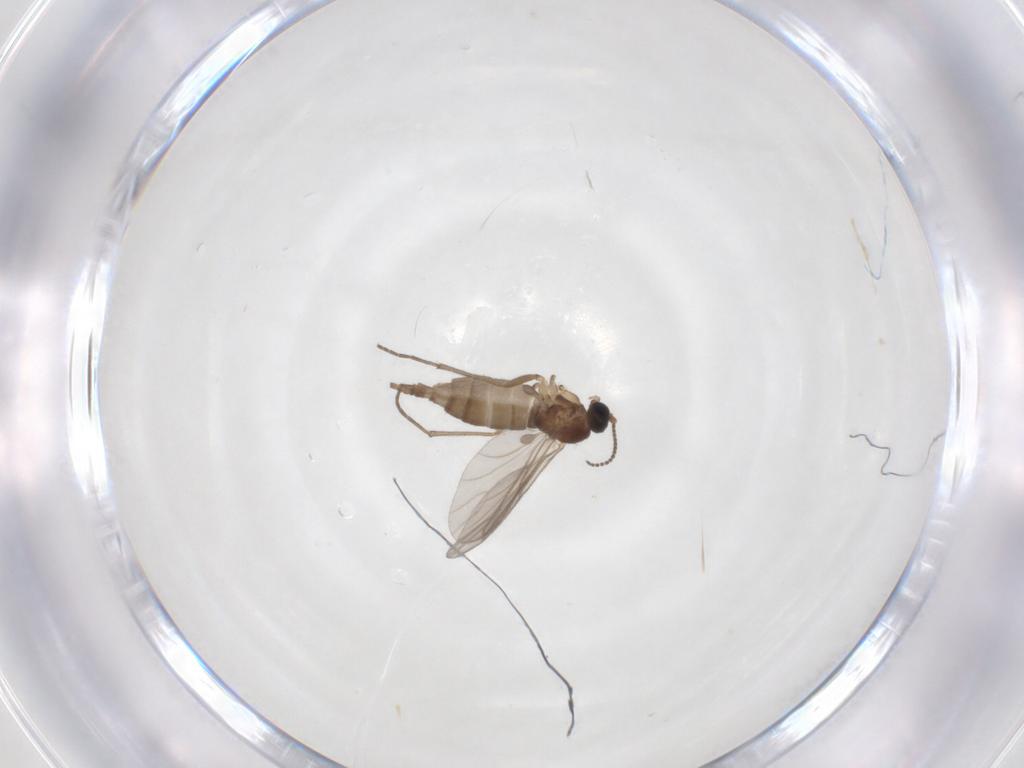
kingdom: Animalia
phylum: Arthropoda
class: Insecta
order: Diptera
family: Sciaridae
